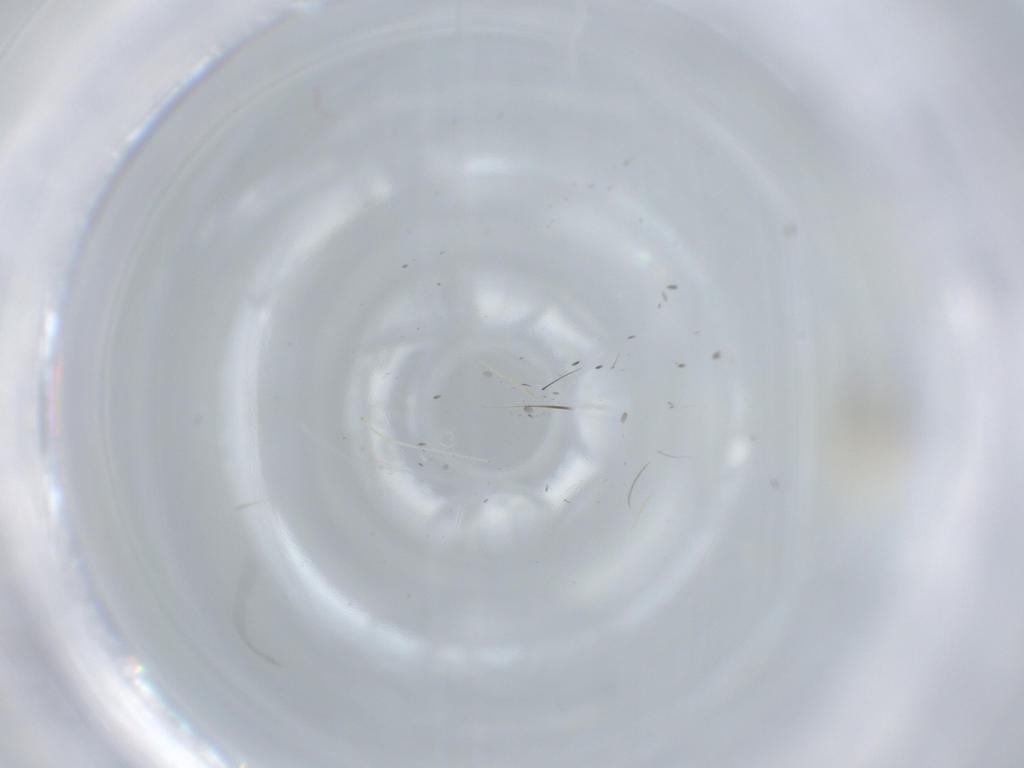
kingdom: Animalia
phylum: Arthropoda
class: Insecta
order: Diptera
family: Cecidomyiidae
